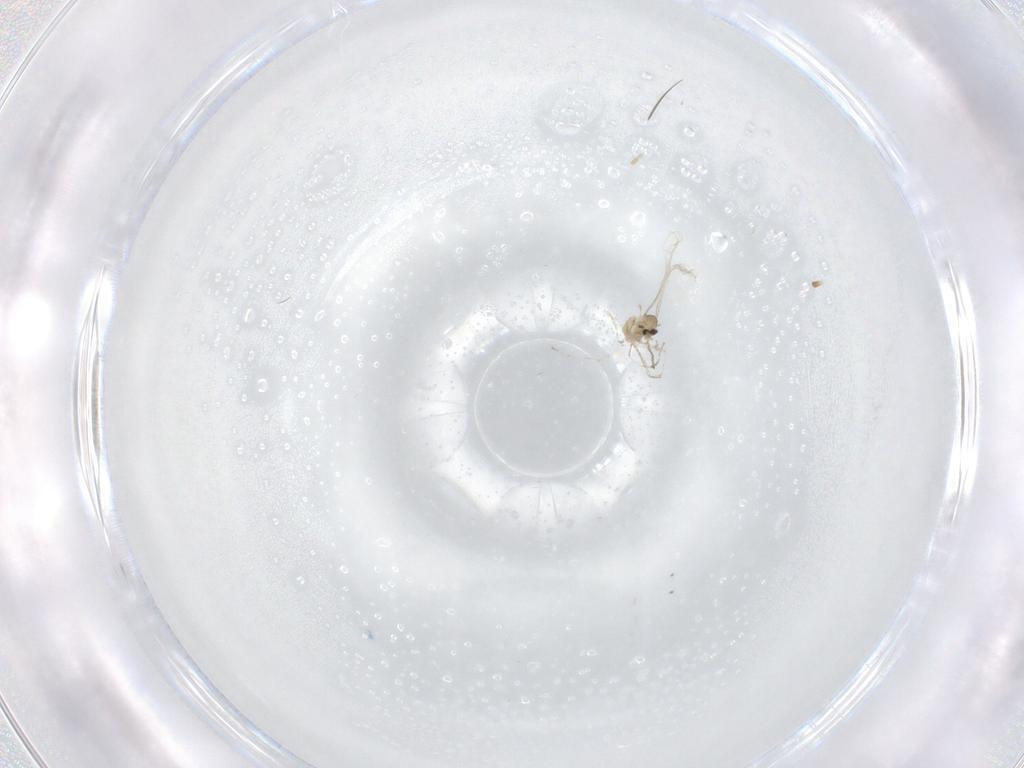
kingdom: Animalia
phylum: Arthropoda
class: Insecta
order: Diptera
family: Cecidomyiidae
